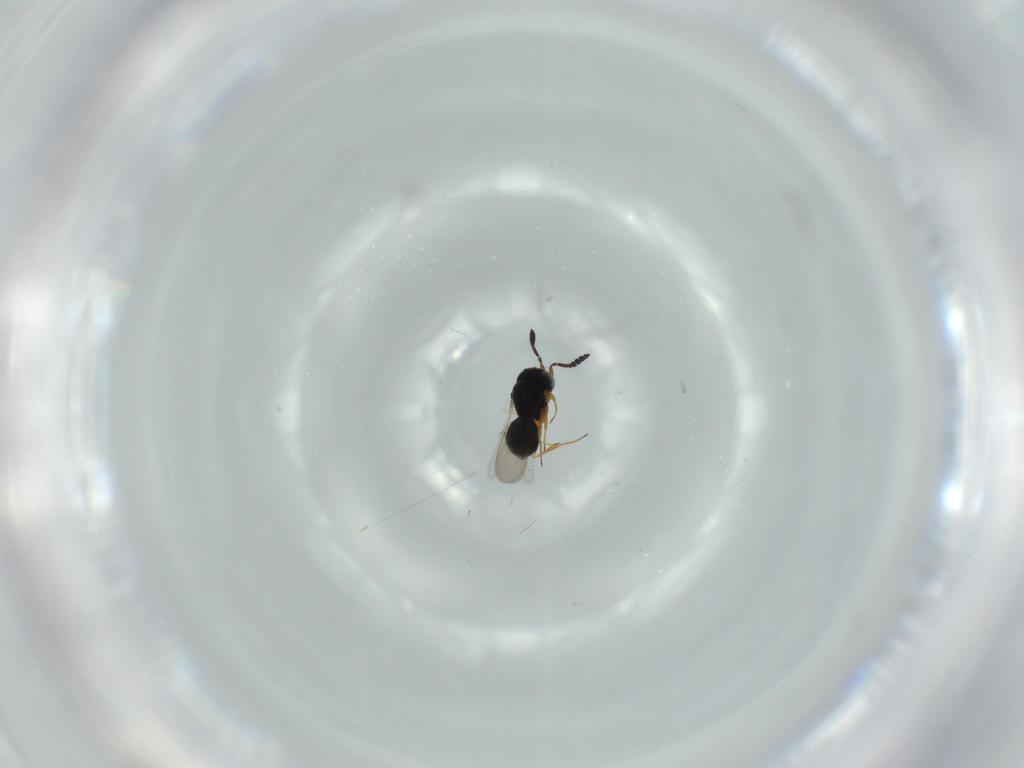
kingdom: Animalia
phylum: Arthropoda
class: Insecta
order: Hymenoptera
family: Scelionidae
